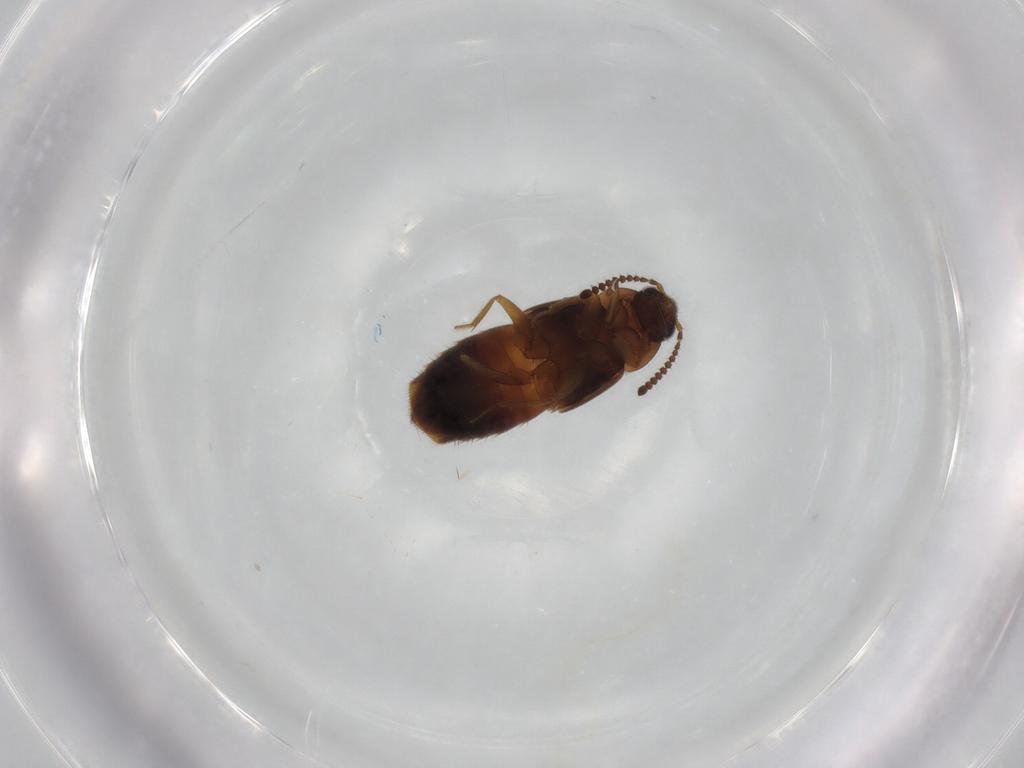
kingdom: Animalia
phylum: Arthropoda
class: Insecta
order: Coleoptera
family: Staphylinidae
